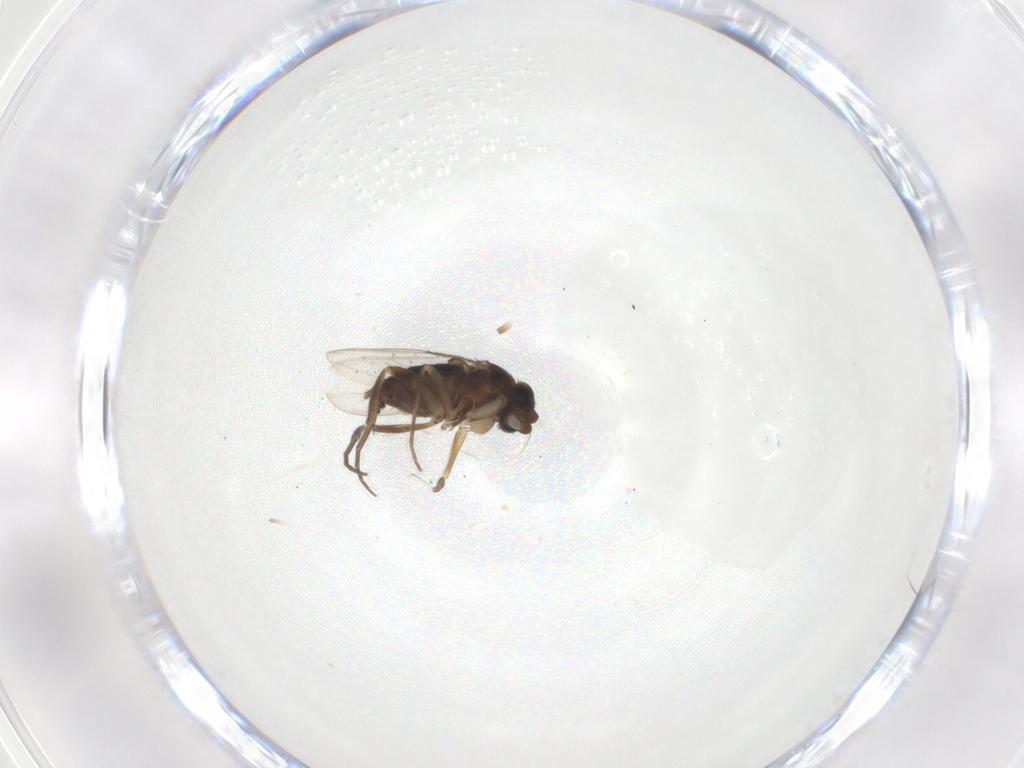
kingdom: Animalia
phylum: Arthropoda
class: Insecta
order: Diptera
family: Phoridae
